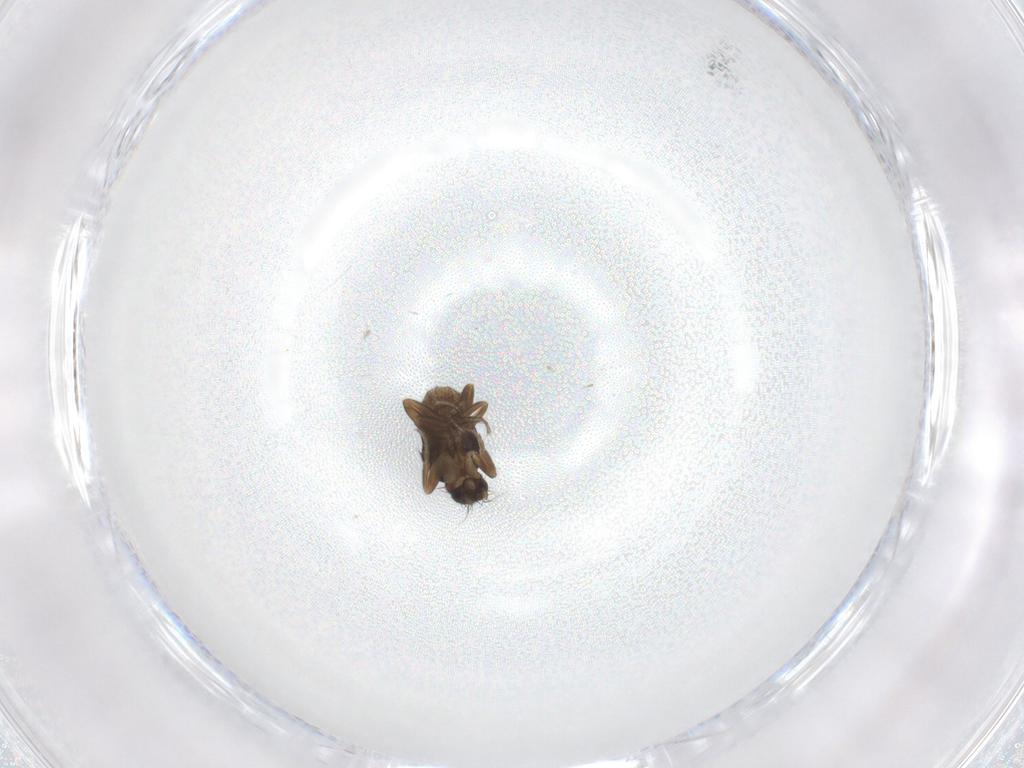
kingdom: Animalia
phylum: Arthropoda
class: Insecta
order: Diptera
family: Phoridae
